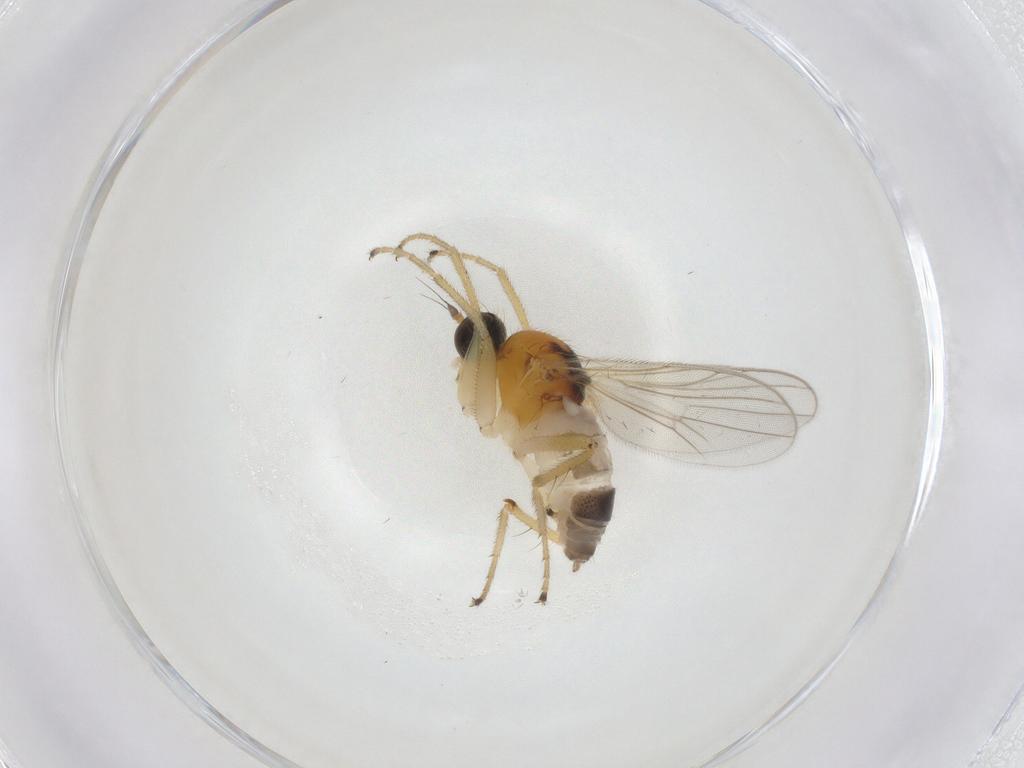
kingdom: Animalia
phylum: Arthropoda
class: Insecta
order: Diptera
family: Hybotidae
